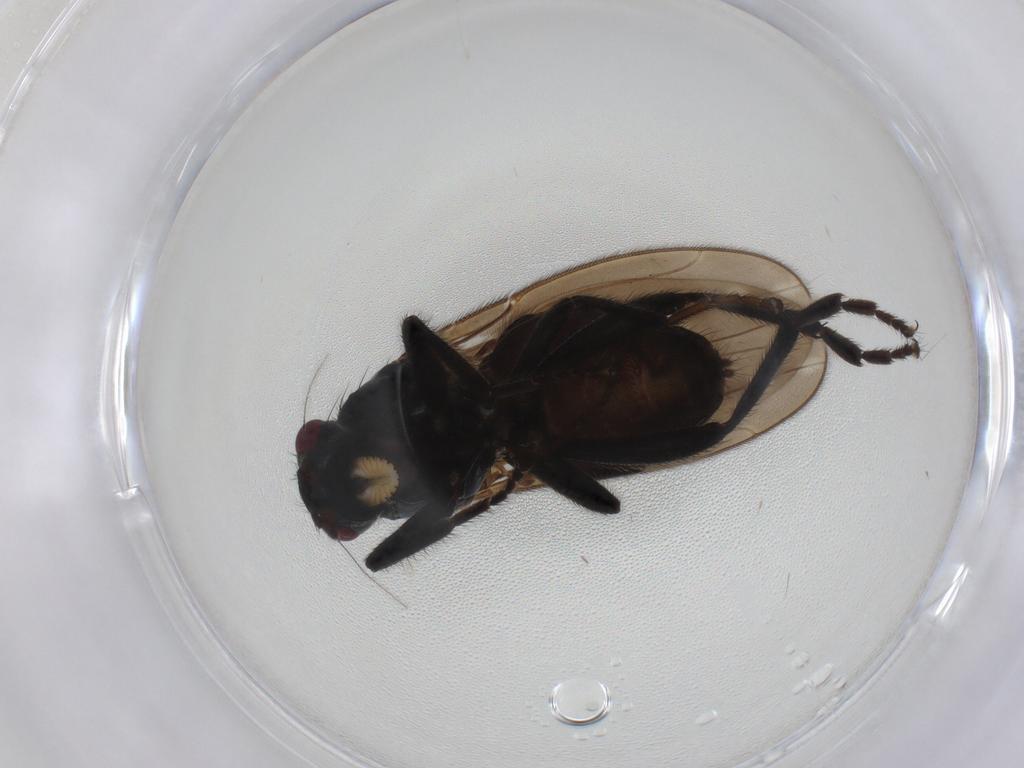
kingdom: Animalia
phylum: Arthropoda
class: Insecta
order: Diptera
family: Sphaeroceridae
